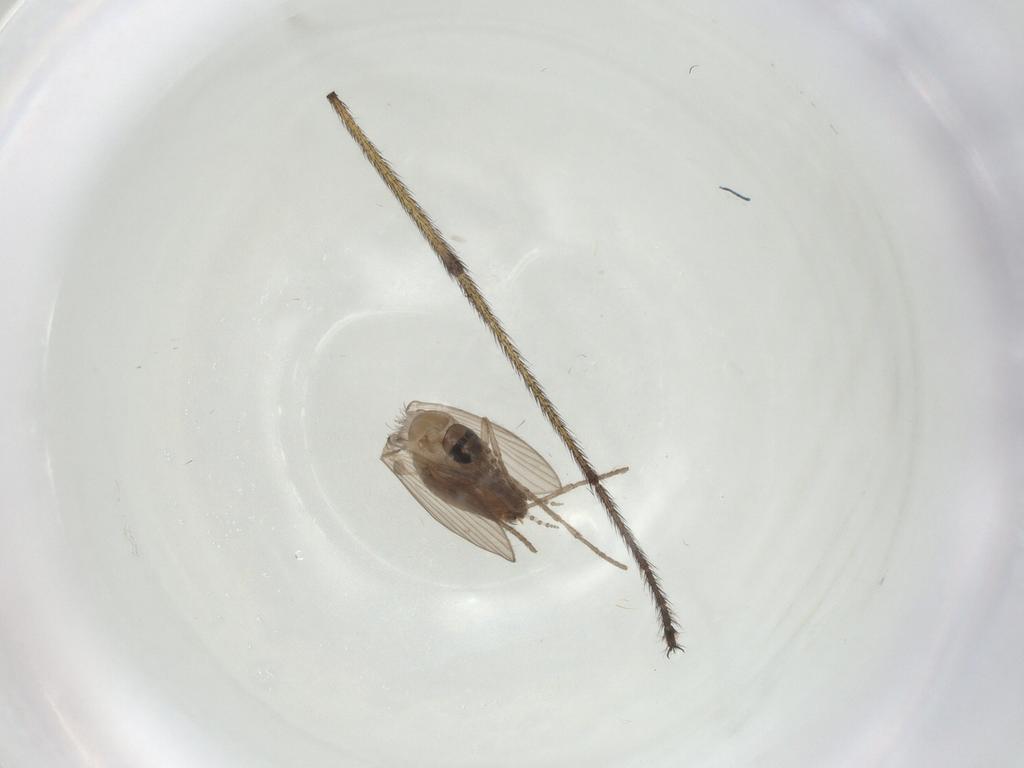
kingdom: Animalia
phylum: Arthropoda
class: Insecta
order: Diptera
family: Psychodidae
